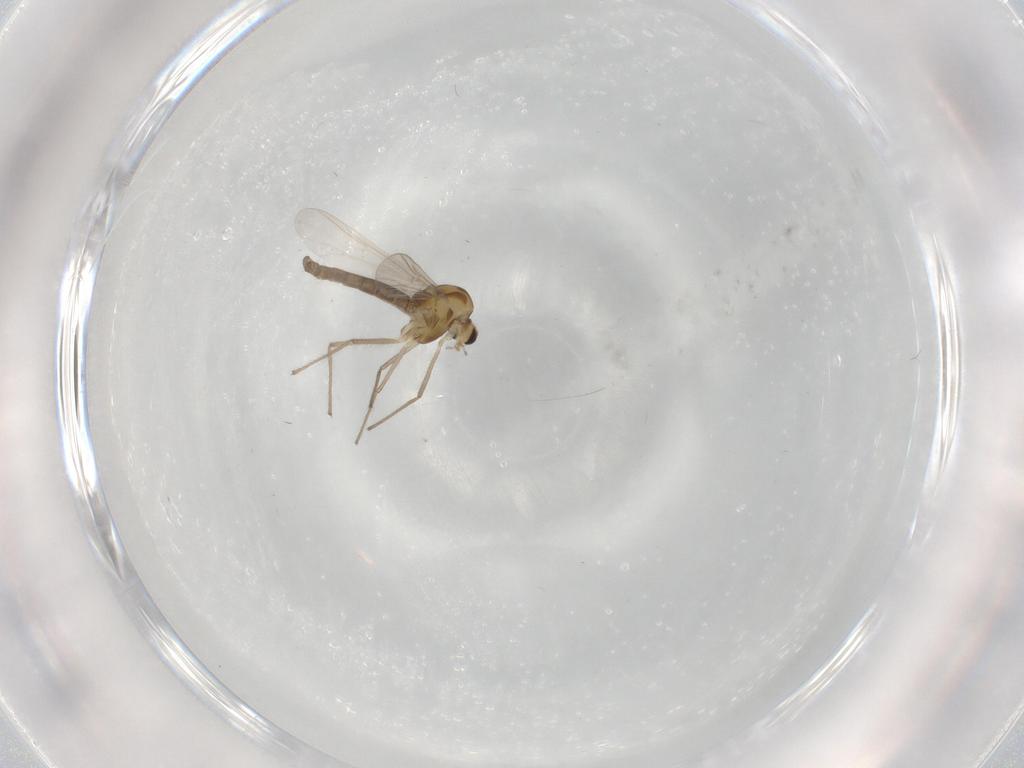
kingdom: Animalia
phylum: Arthropoda
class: Insecta
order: Diptera
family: Chironomidae
